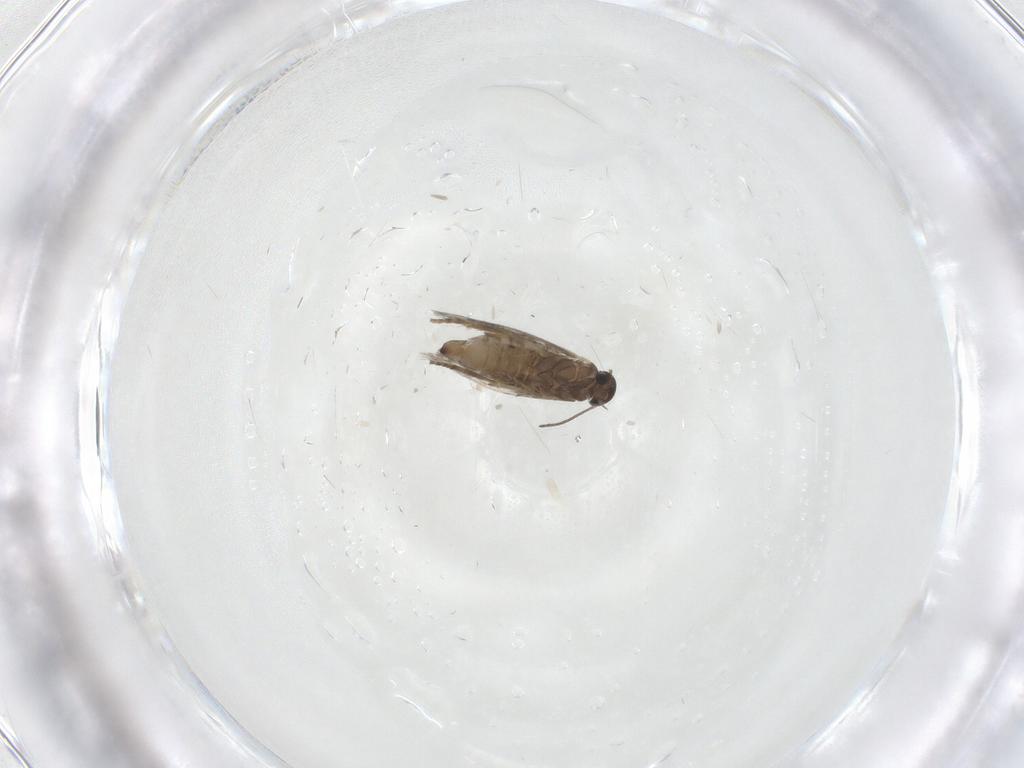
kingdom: Animalia
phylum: Arthropoda
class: Insecta
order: Lepidoptera
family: Heliozelidae
